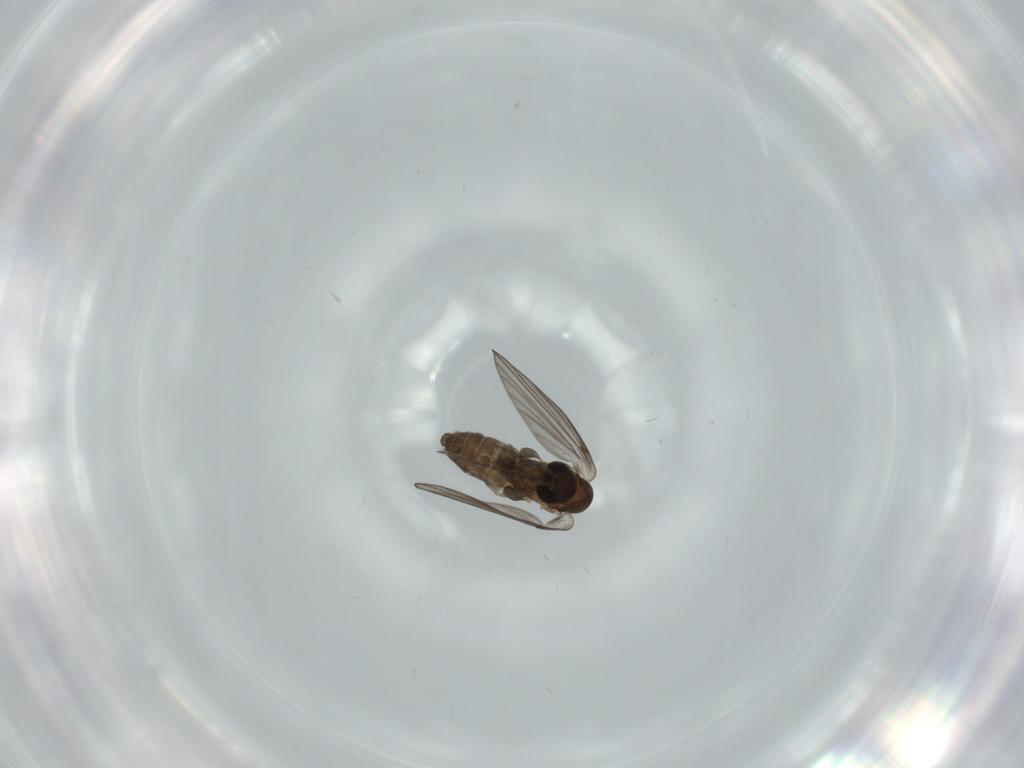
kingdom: Animalia
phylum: Arthropoda
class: Insecta
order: Diptera
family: Psychodidae
